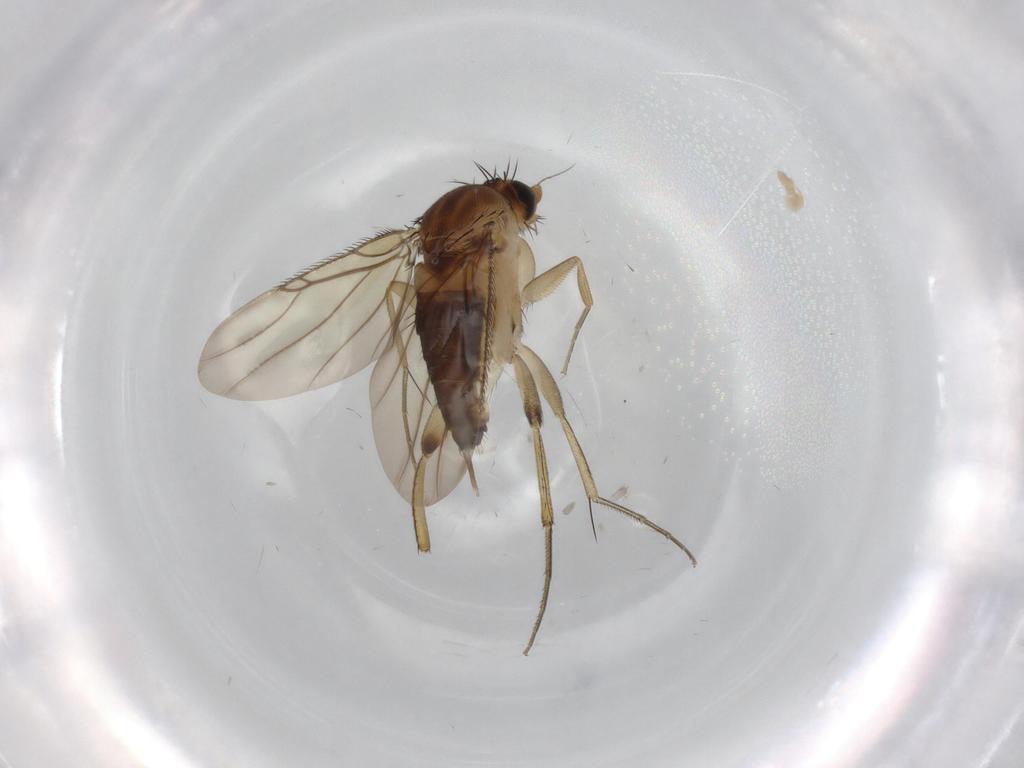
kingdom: Animalia
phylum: Arthropoda
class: Insecta
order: Diptera
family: Phoridae
